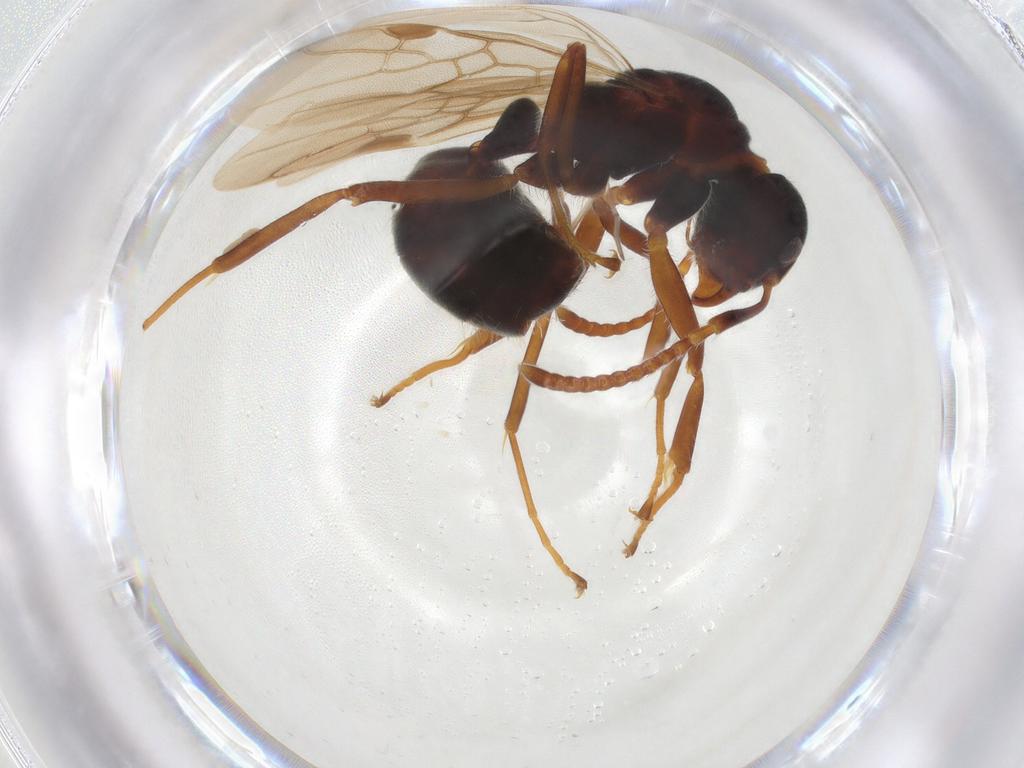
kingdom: Animalia
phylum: Arthropoda
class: Insecta
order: Hymenoptera
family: Formicidae
